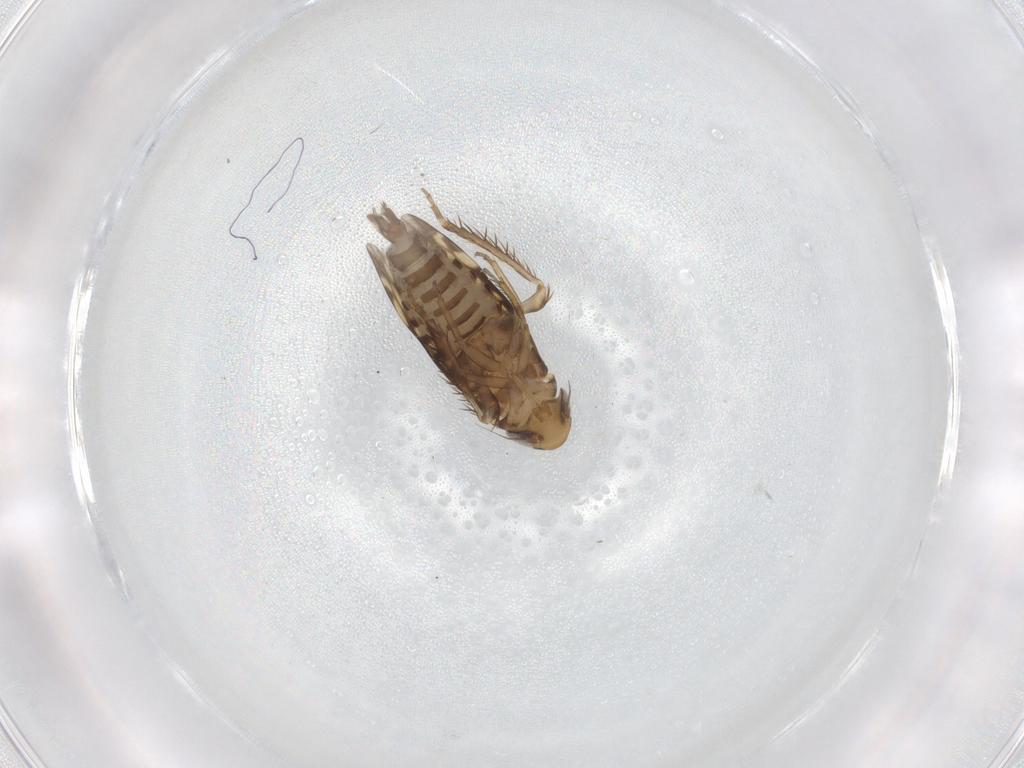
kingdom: Animalia
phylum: Arthropoda
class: Insecta
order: Hemiptera
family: Cicadellidae
